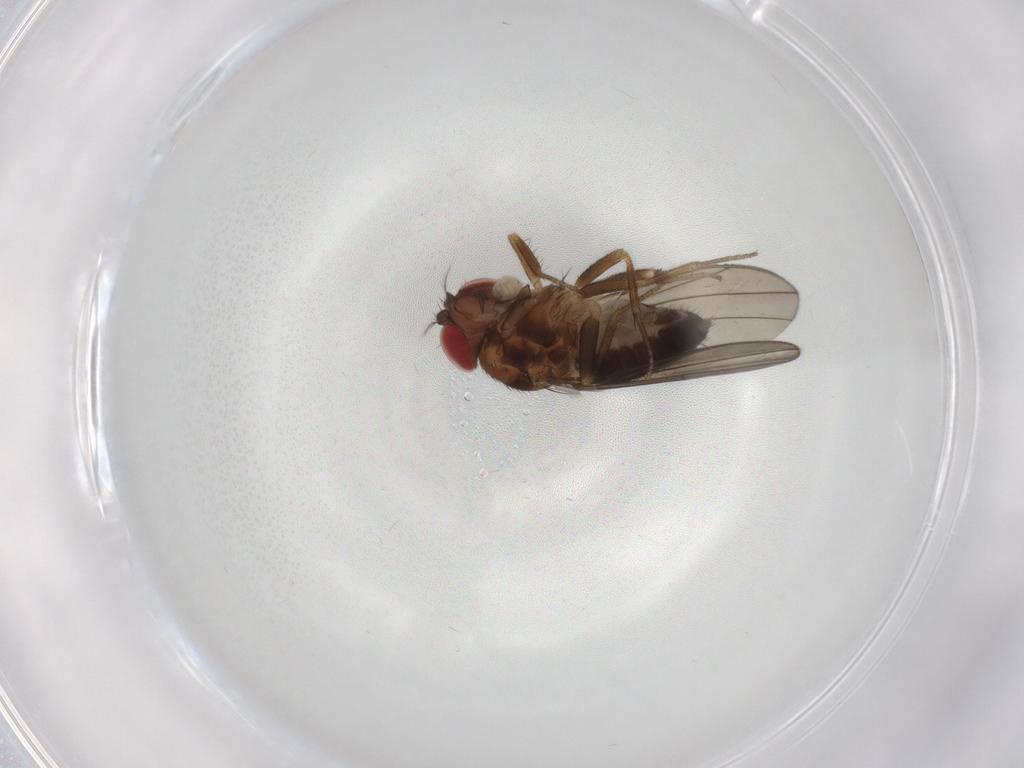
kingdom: Animalia
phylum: Arthropoda
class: Insecta
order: Diptera
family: Drosophilidae
